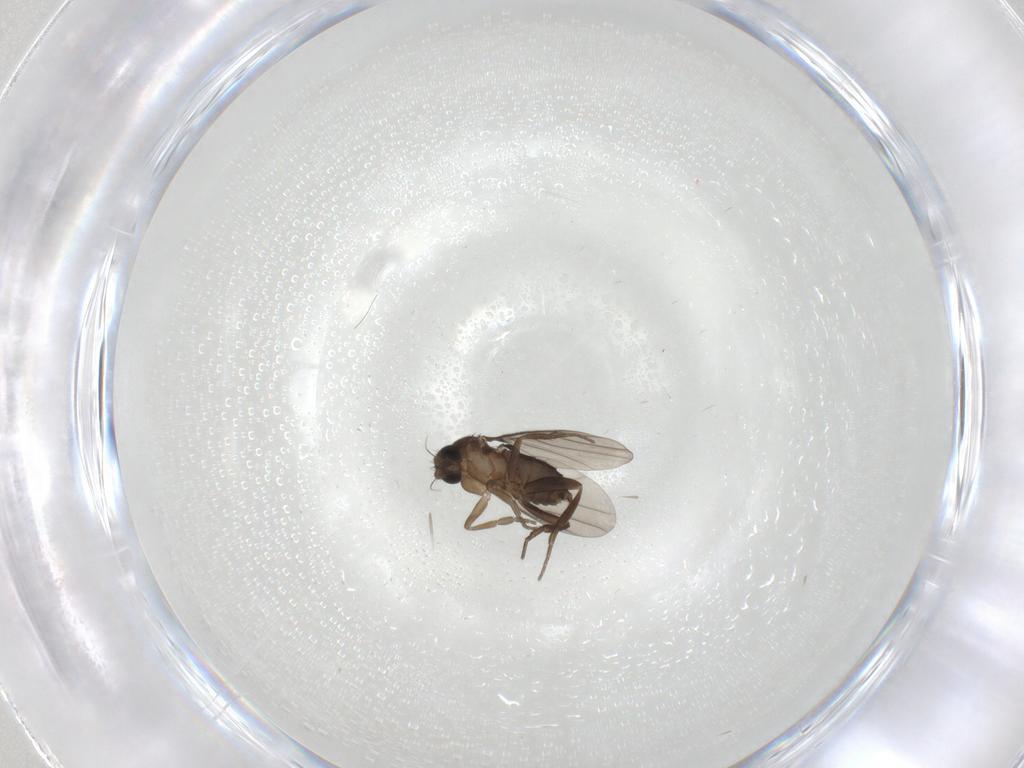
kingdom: Animalia
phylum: Arthropoda
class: Insecta
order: Diptera
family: Phoridae
